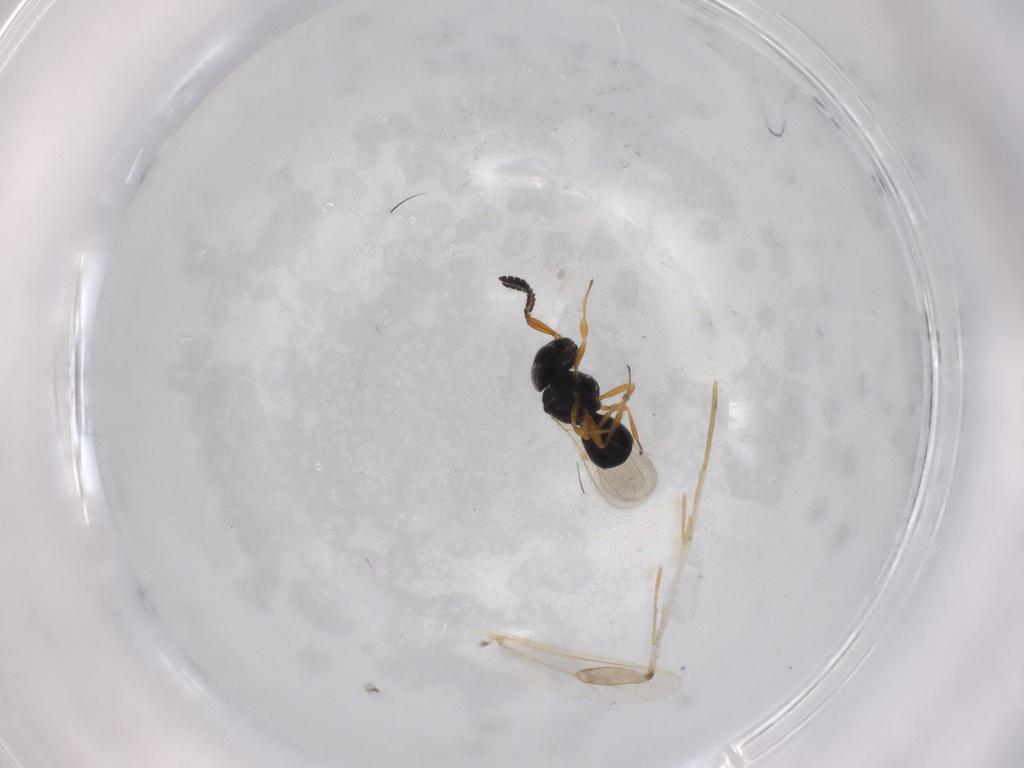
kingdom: Animalia
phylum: Arthropoda
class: Insecta
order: Hymenoptera
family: Scelionidae
